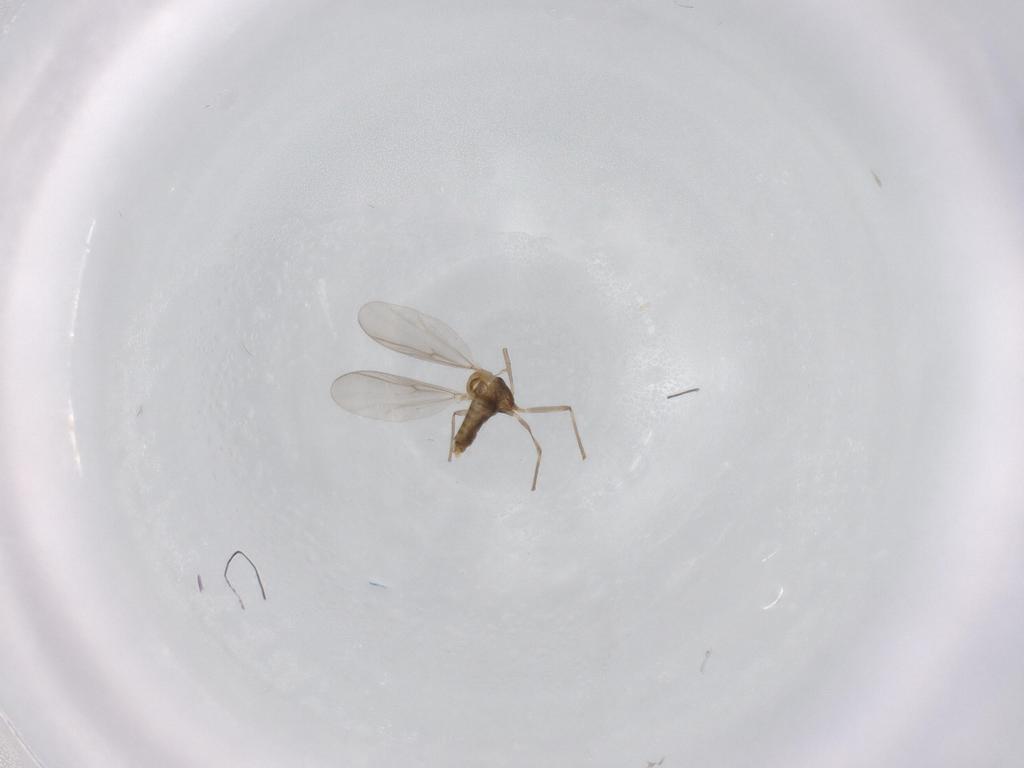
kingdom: Animalia
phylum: Arthropoda
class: Insecta
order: Diptera
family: Chironomidae
